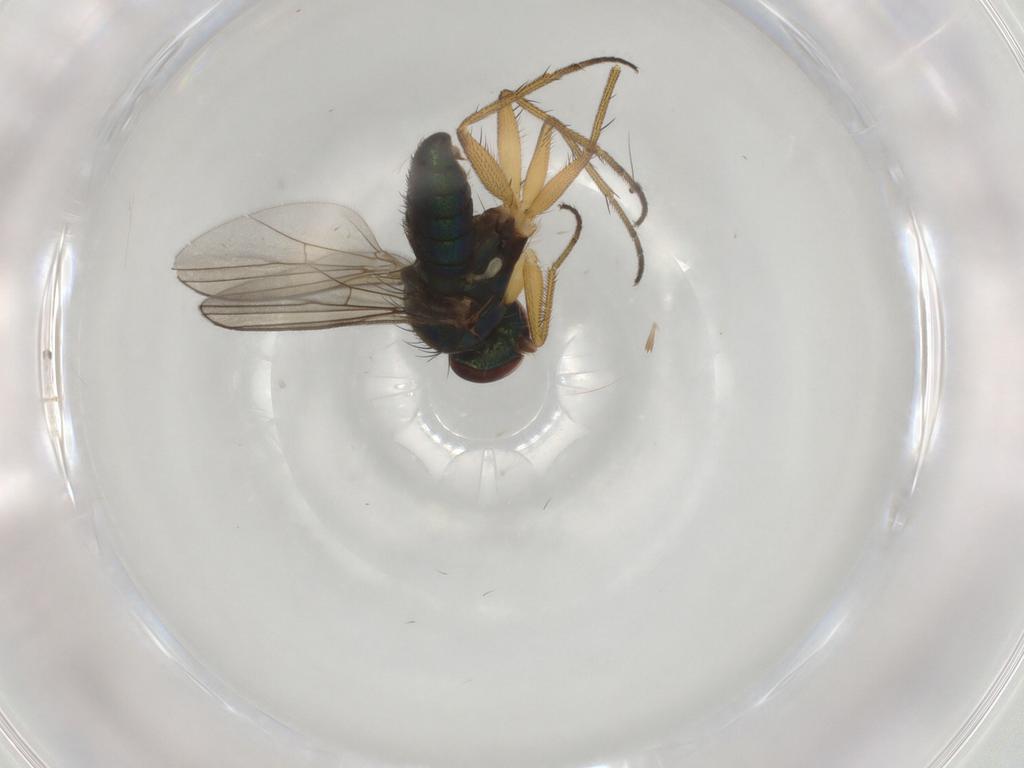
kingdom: Animalia
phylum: Arthropoda
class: Insecta
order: Diptera
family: Dolichopodidae
